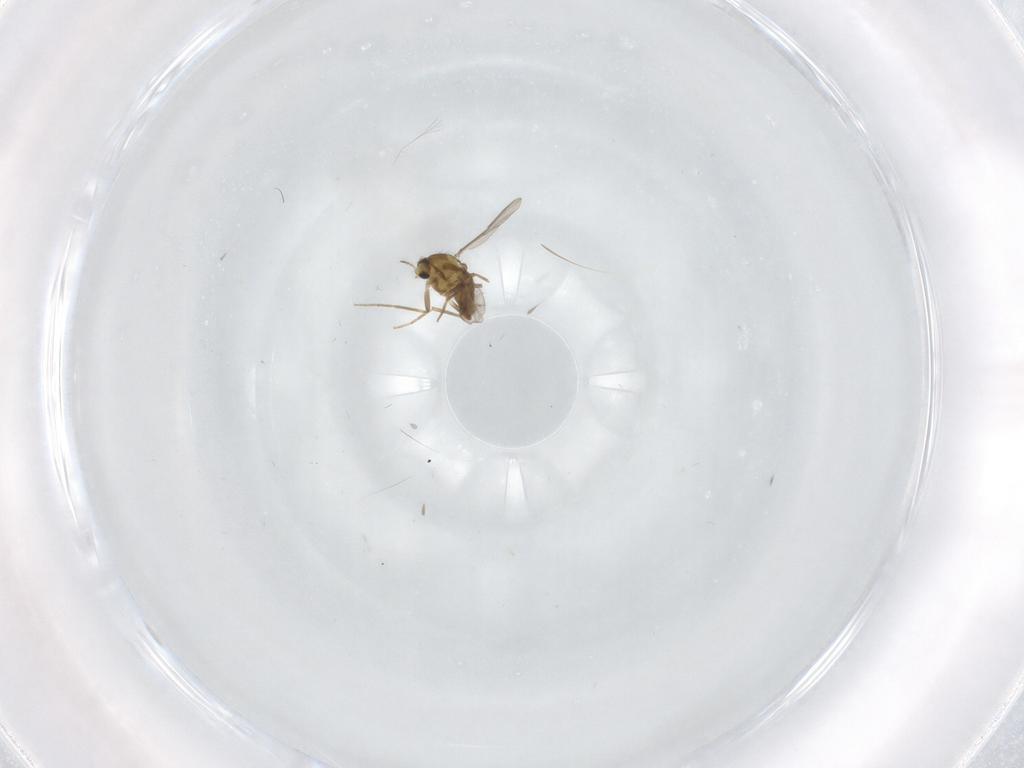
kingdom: Animalia
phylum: Arthropoda
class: Insecta
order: Diptera
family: Chironomidae
